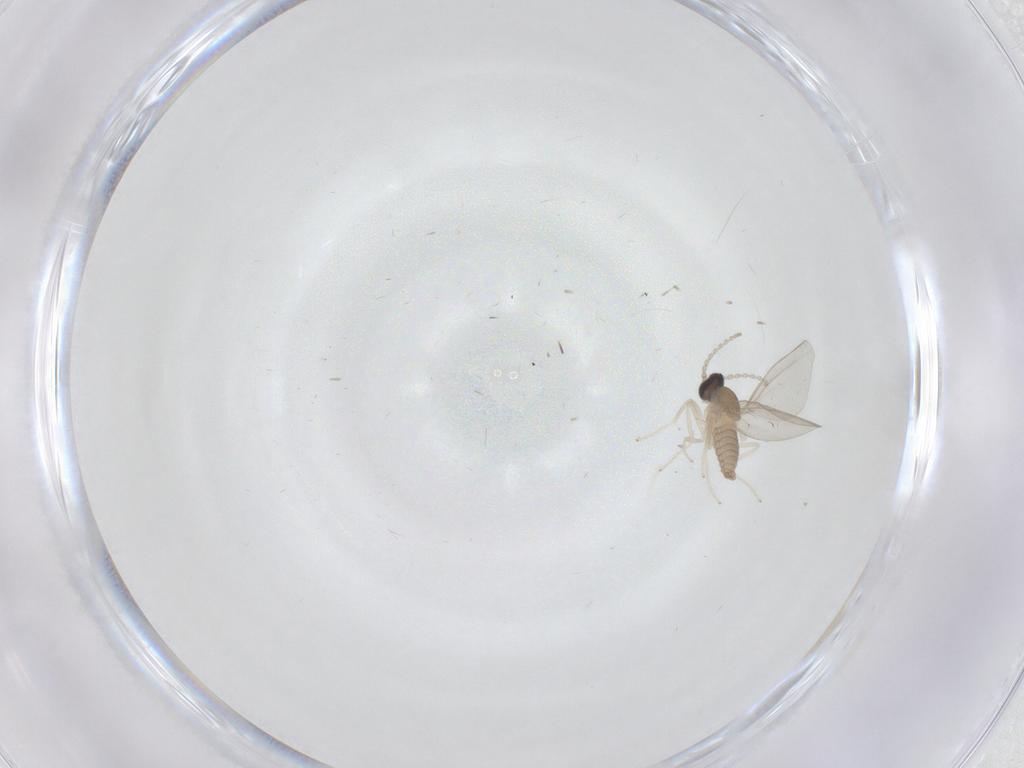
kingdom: Animalia
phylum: Arthropoda
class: Insecta
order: Diptera
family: Cecidomyiidae
